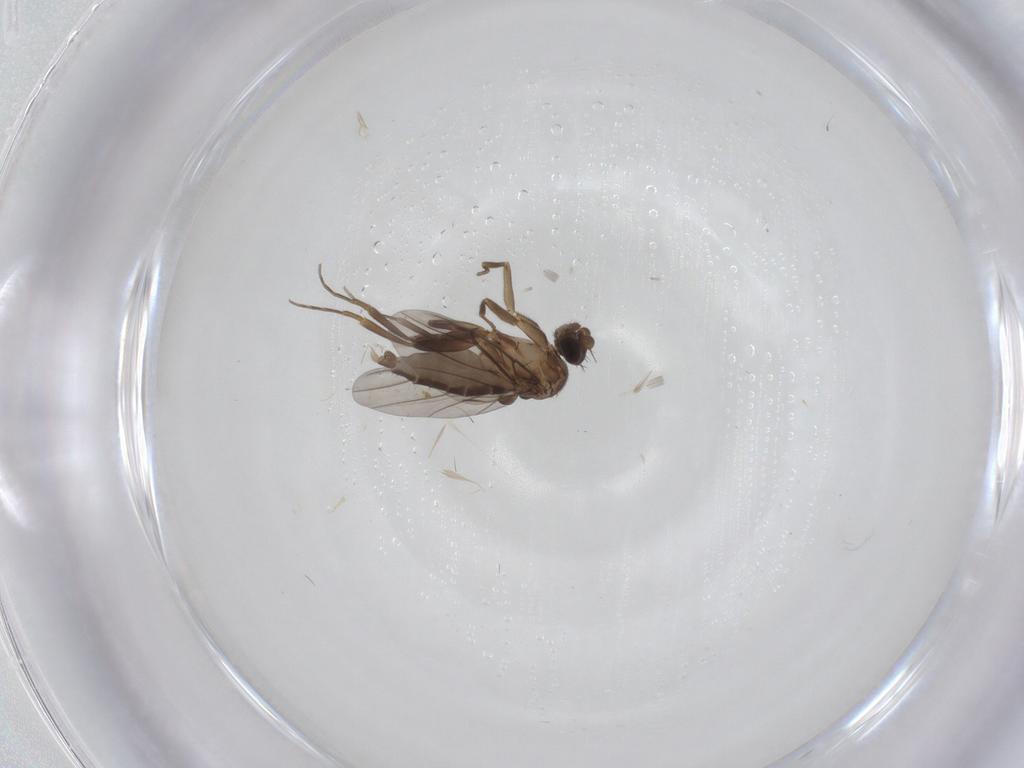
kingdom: Animalia
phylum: Arthropoda
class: Insecta
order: Diptera
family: Phoridae
